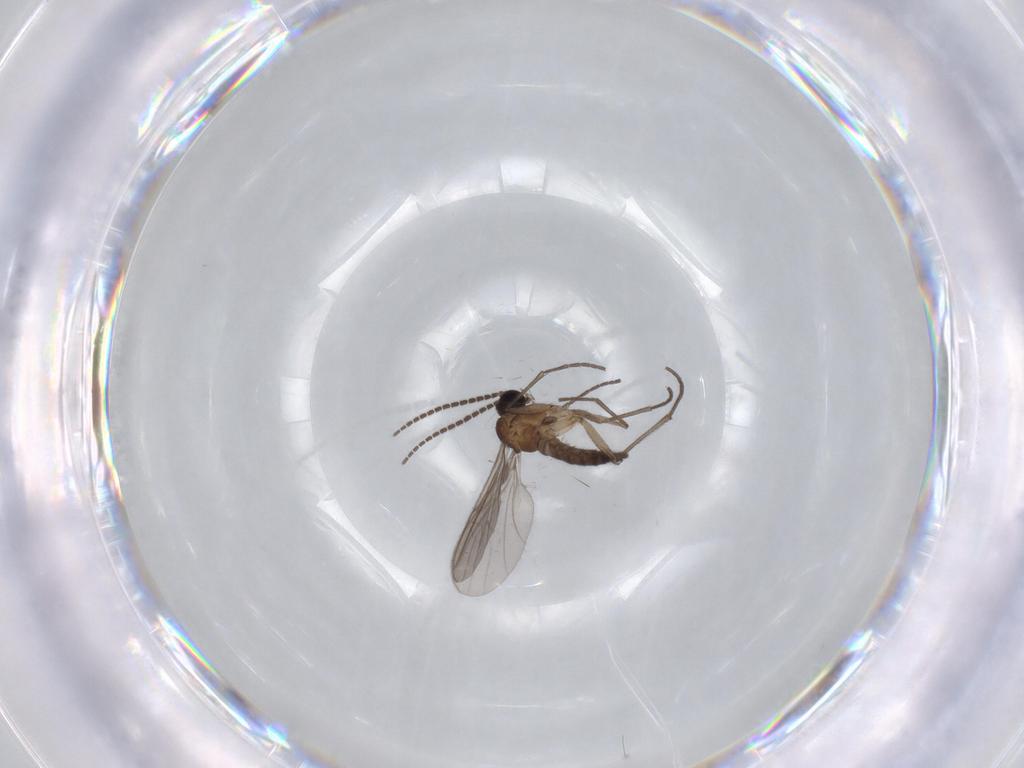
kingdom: Animalia
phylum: Arthropoda
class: Insecta
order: Diptera
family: Sciaridae
